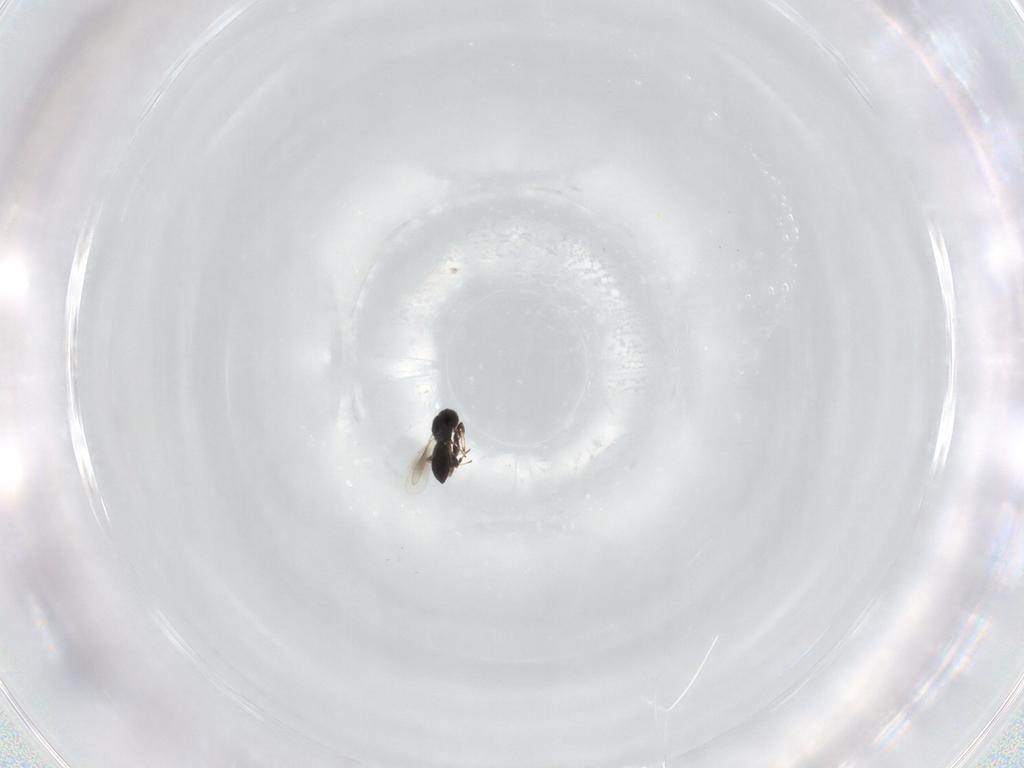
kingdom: Animalia
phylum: Arthropoda
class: Insecta
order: Hymenoptera
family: Platygastridae
